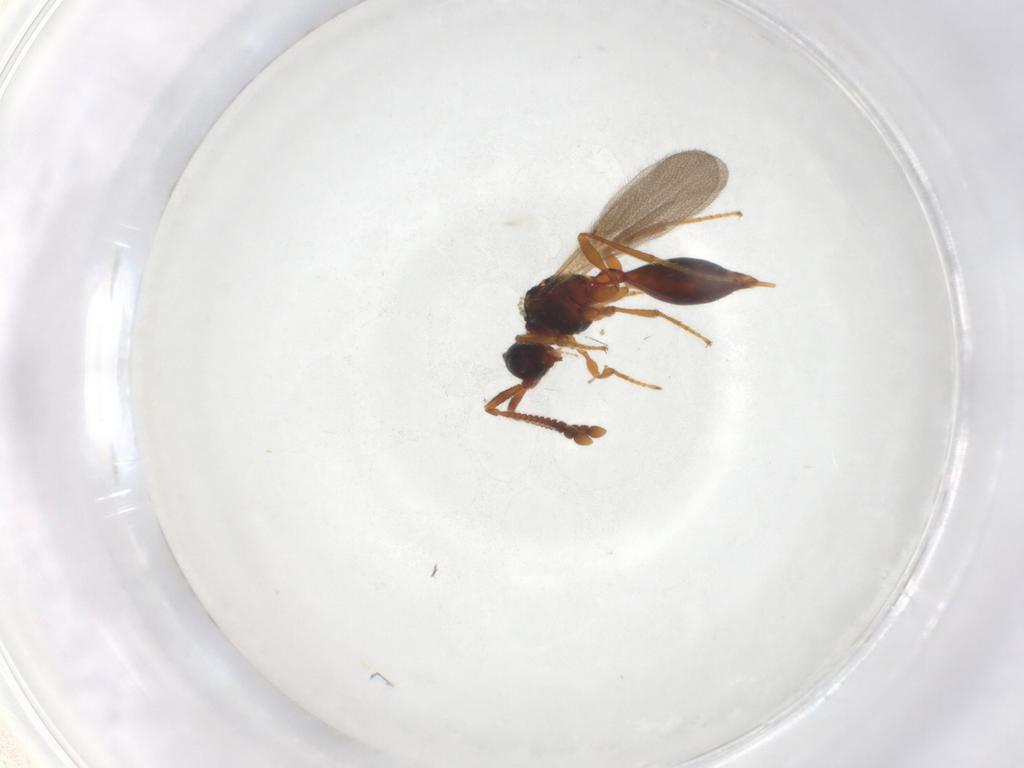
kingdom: Animalia
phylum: Arthropoda
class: Insecta
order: Hymenoptera
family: Diapriidae
